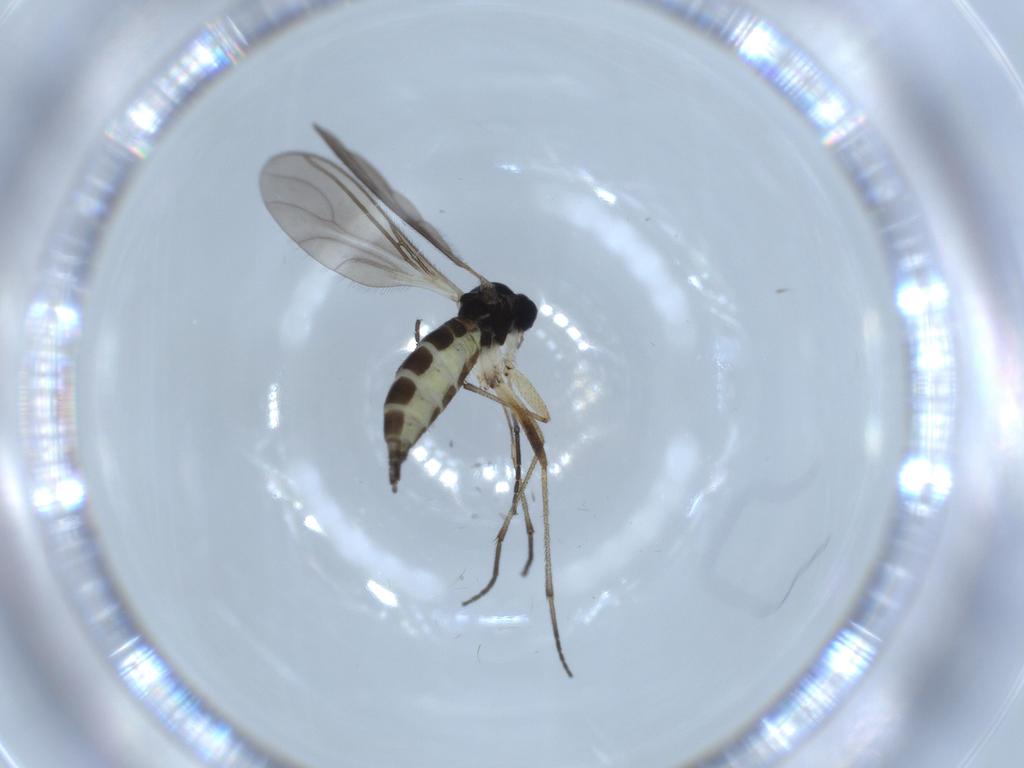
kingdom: Animalia
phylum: Arthropoda
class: Insecta
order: Diptera
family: Sciaridae
